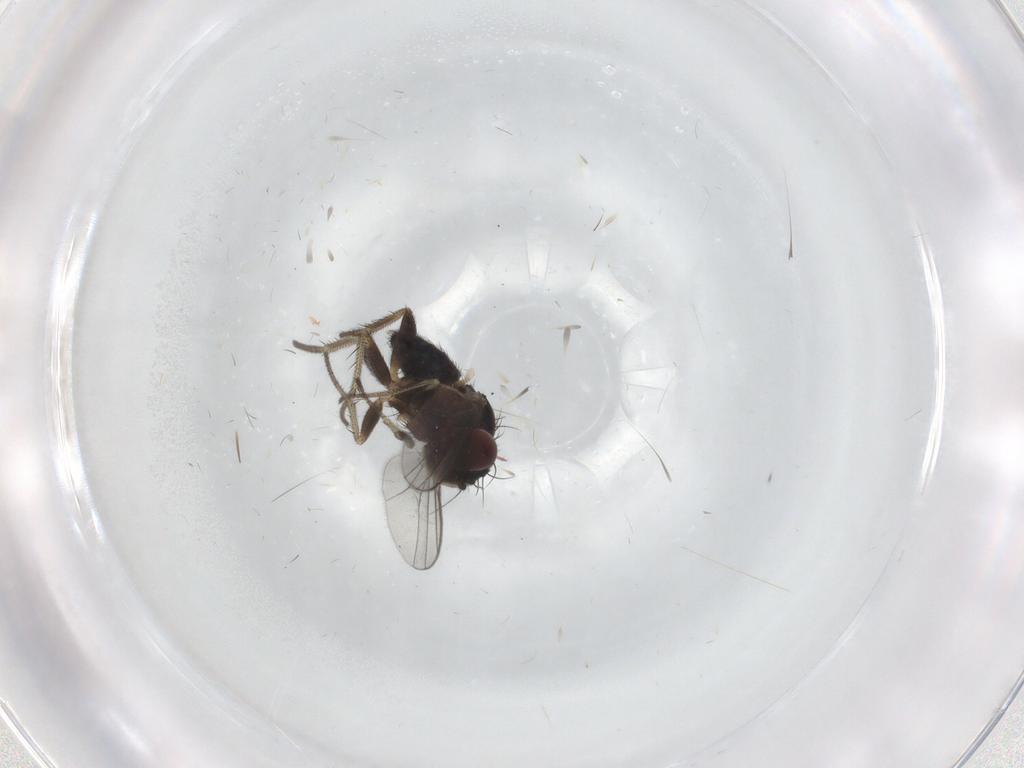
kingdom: Animalia
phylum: Arthropoda
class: Insecta
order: Diptera
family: Dolichopodidae
